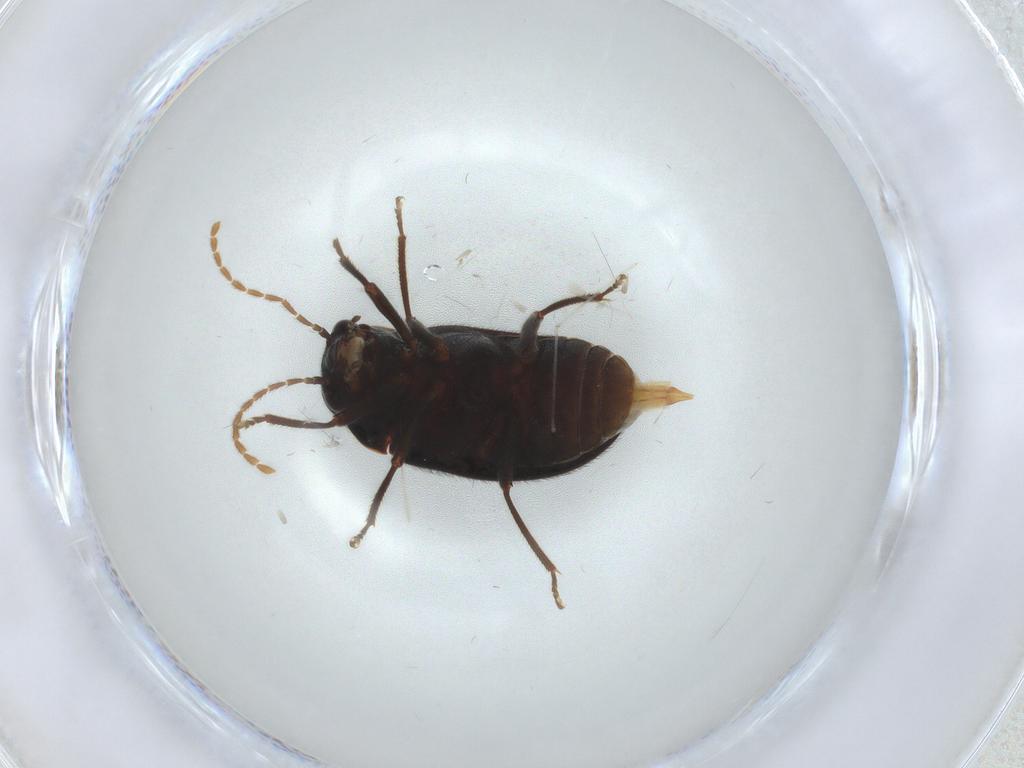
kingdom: Animalia
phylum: Arthropoda
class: Insecta
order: Coleoptera
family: Ptilodactylidae
